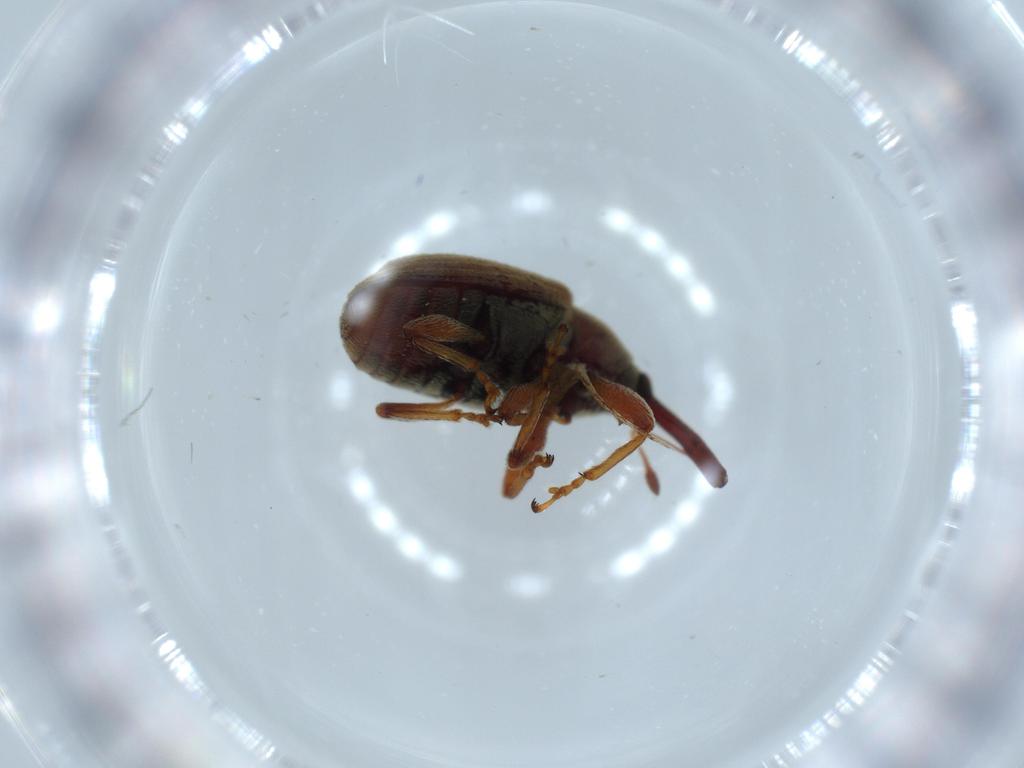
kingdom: Animalia
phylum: Arthropoda
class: Insecta
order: Coleoptera
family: Curculionidae
